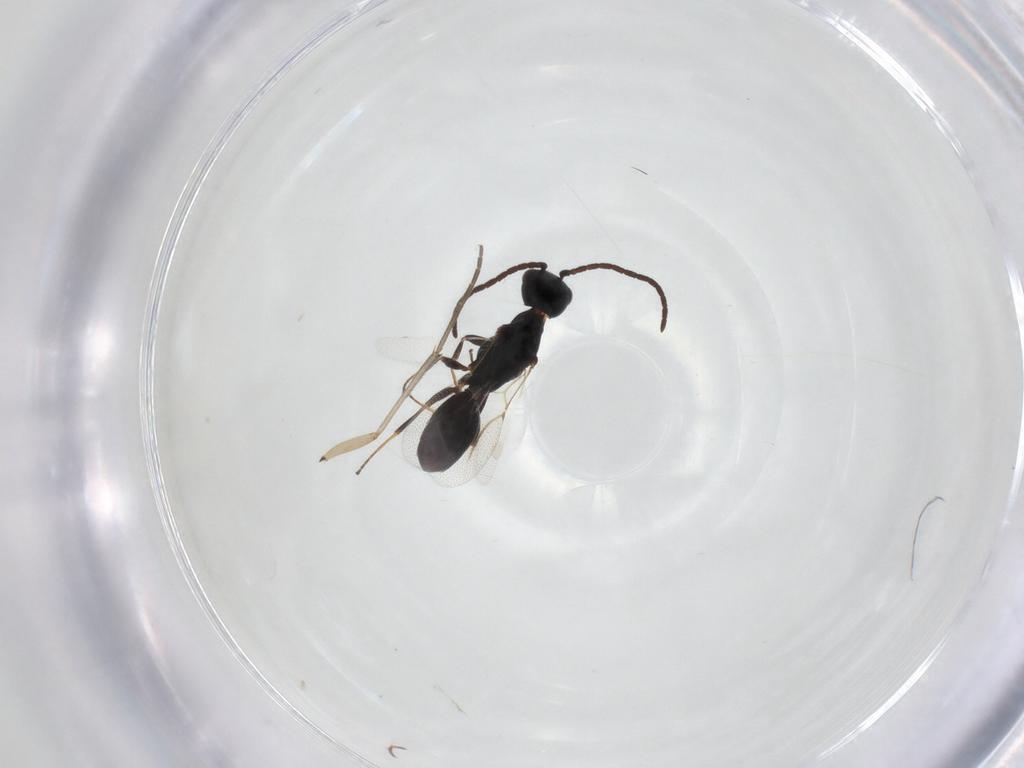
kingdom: Animalia
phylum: Arthropoda
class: Insecta
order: Hymenoptera
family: Bethylidae
